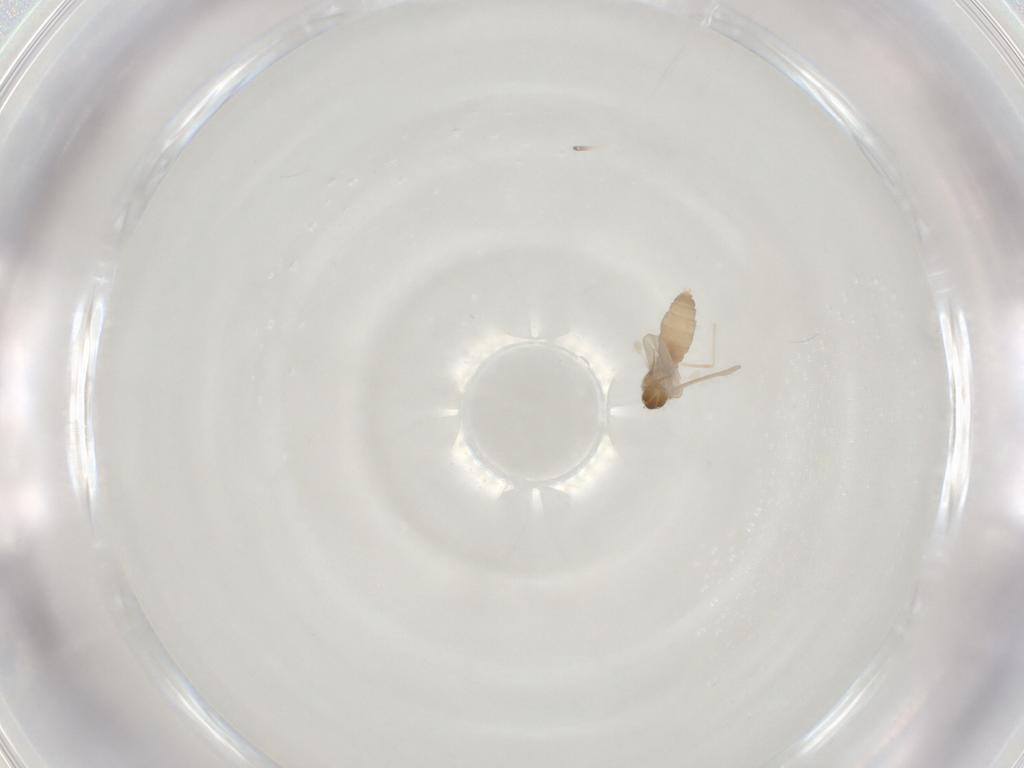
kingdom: Animalia
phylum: Arthropoda
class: Insecta
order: Diptera
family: Cecidomyiidae
